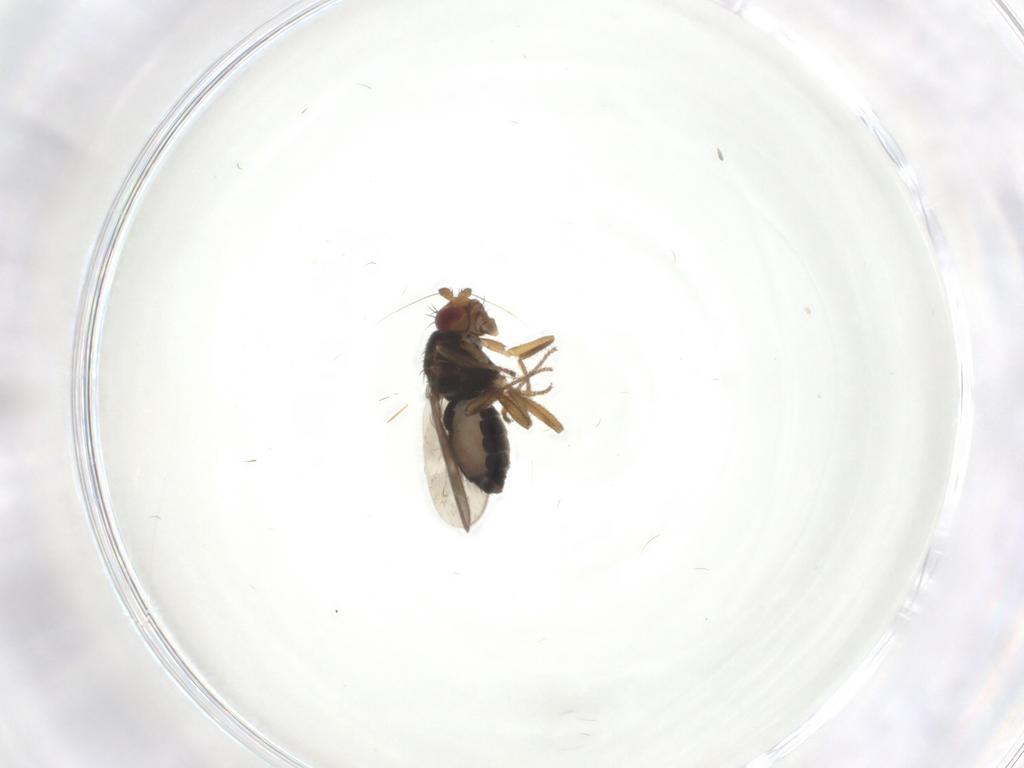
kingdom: Animalia
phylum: Arthropoda
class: Insecta
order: Diptera
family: Sphaeroceridae
